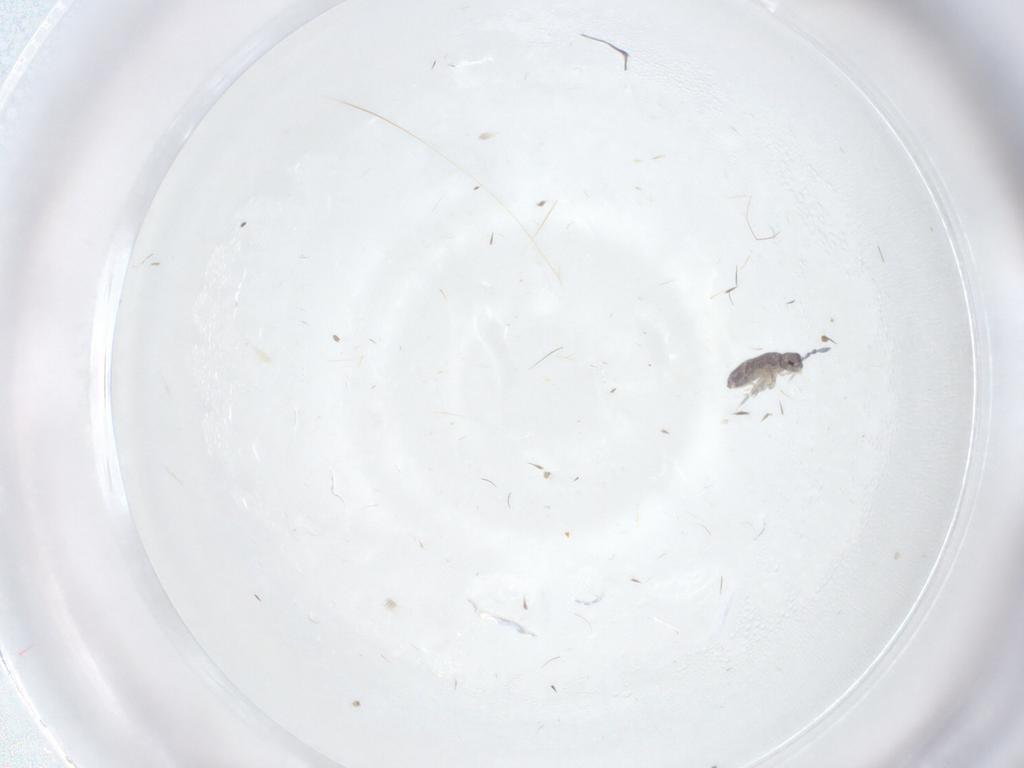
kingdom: Animalia
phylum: Arthropoda
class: Collembola
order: Entomobryomorpha
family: Entomobryidae
